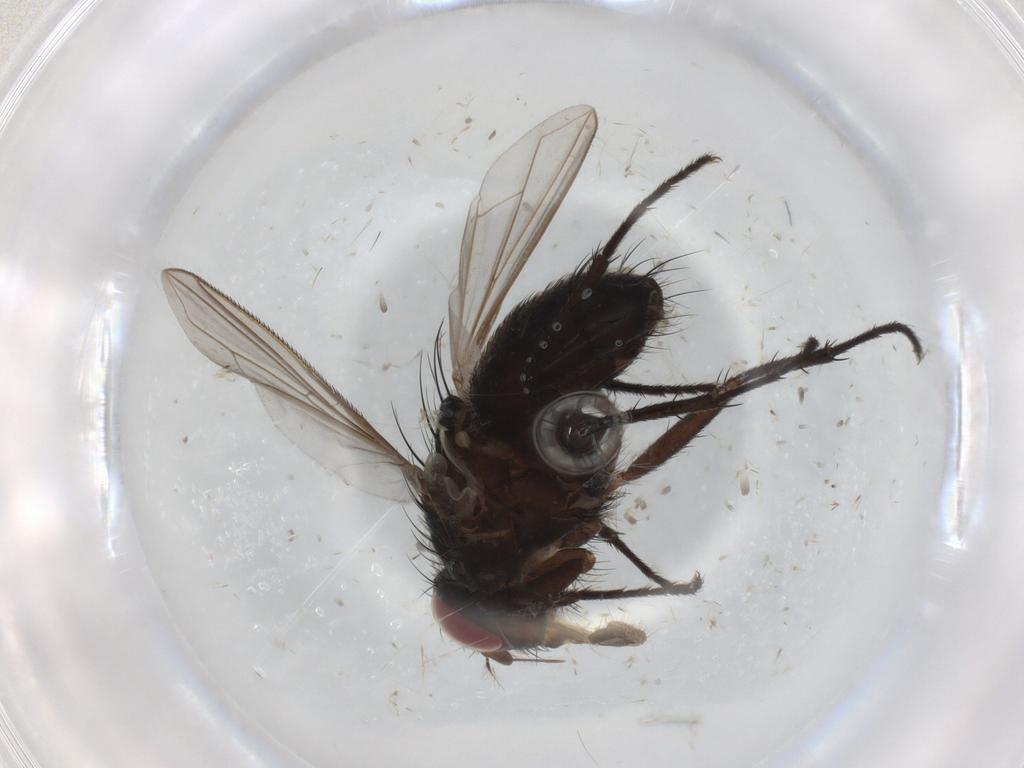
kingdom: Animalia
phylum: Arthropoda
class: Insecta
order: Diptera
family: Calliphoridae
